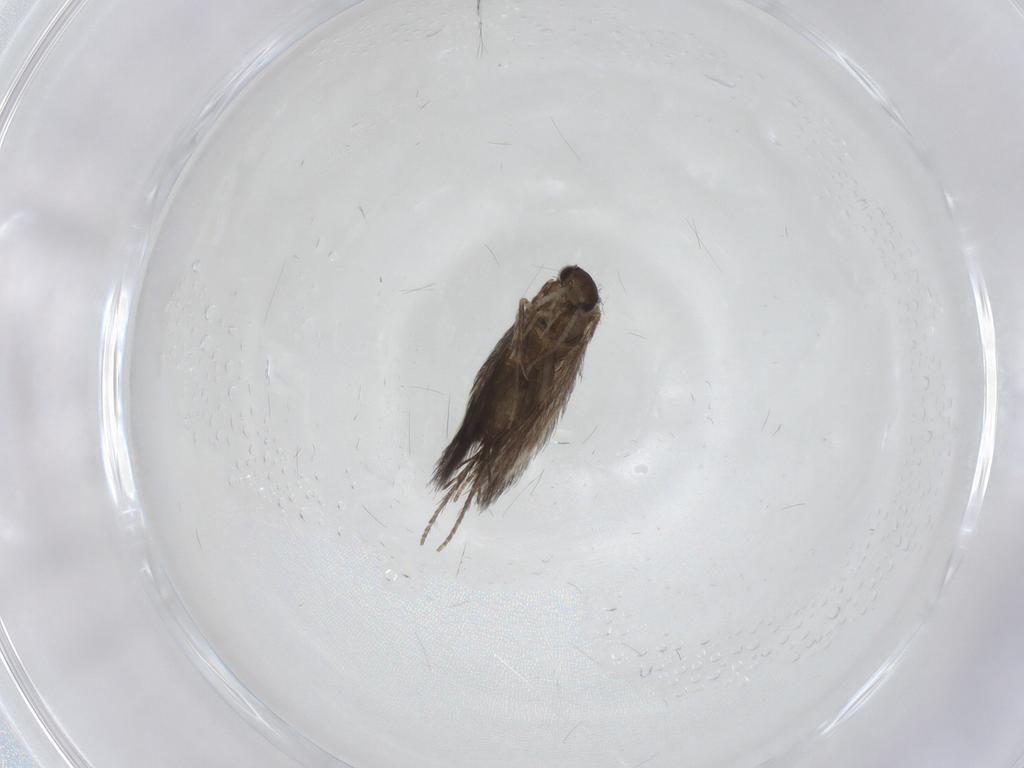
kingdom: Animalia
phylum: Arthropoda
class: Insecta
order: Trichoptera
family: Hydroptilidae
